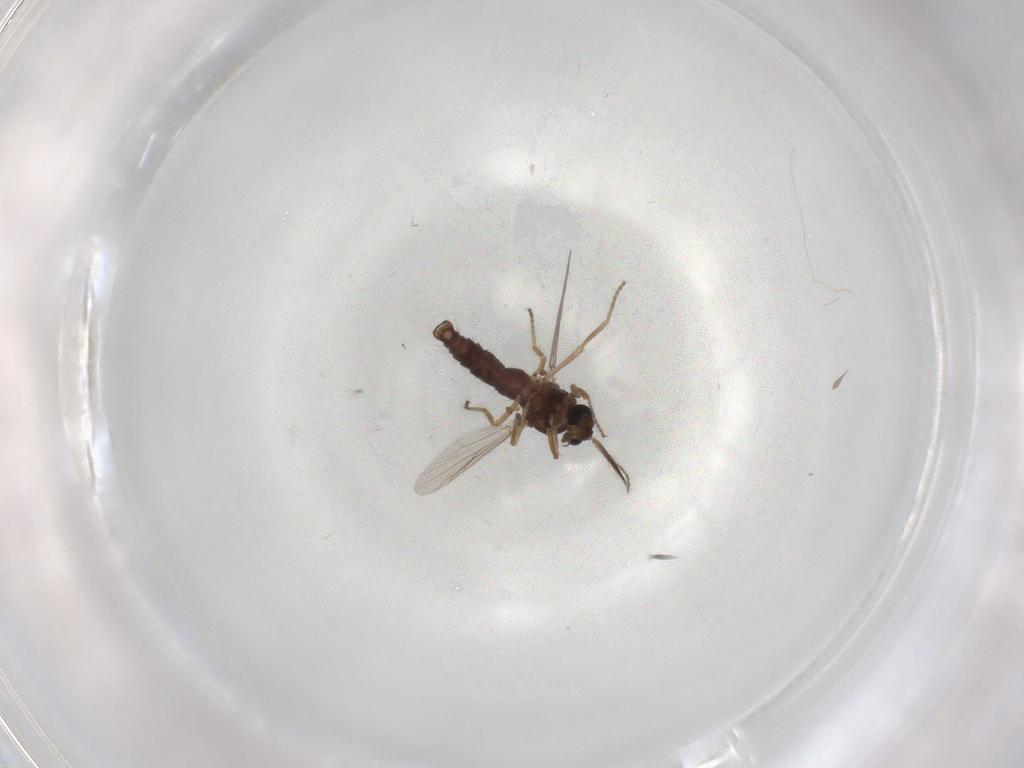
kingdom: Animalia
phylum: Arthropoda
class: Insecta
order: Diptera
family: Ceratopogonidae
